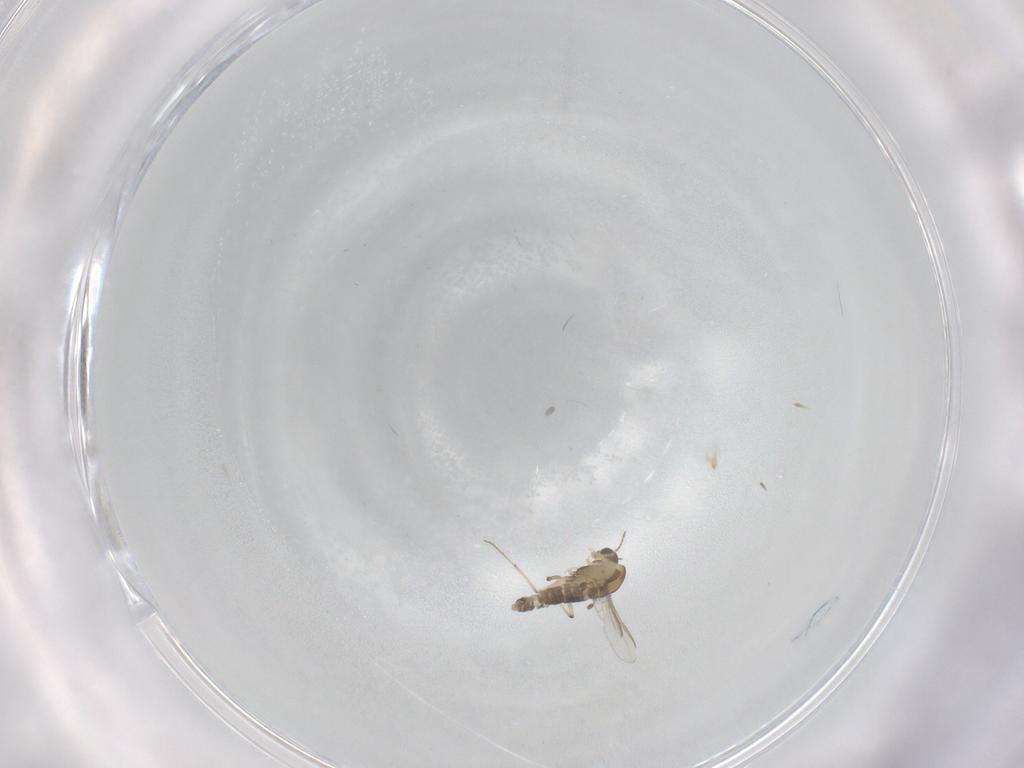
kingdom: Animalia
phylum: Arthropoda
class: Insecta
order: Diptera
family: Chironomidae
